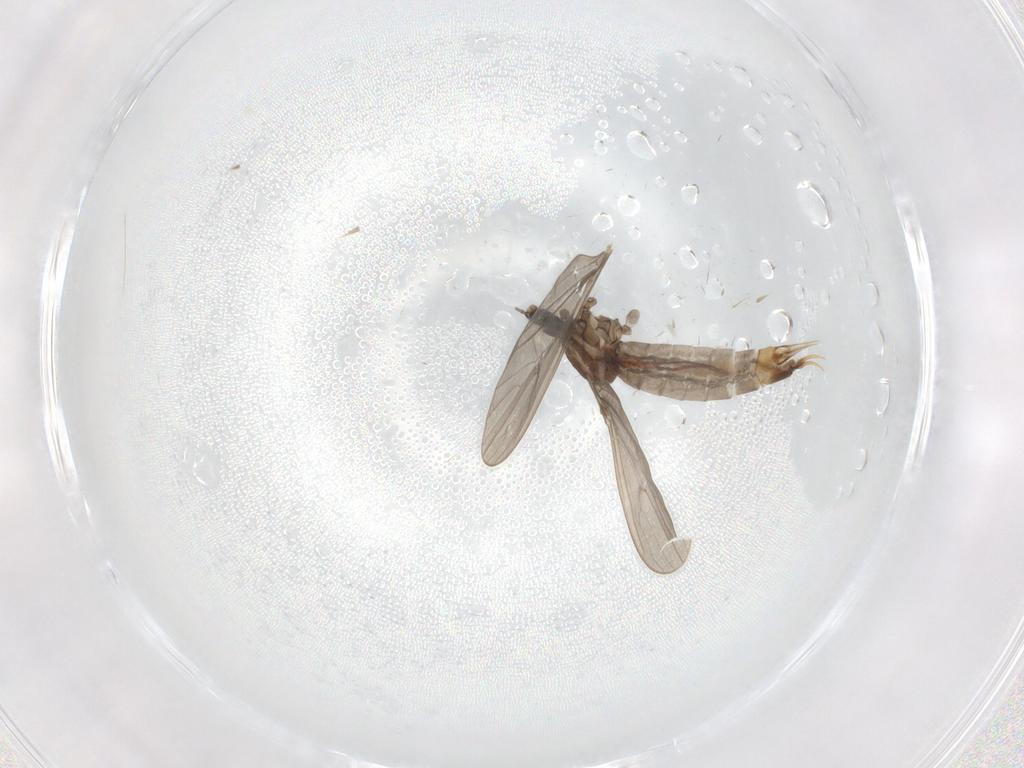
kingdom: Animalia
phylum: Arthropoda
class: Insecta
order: Diptera
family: Limoniidae
